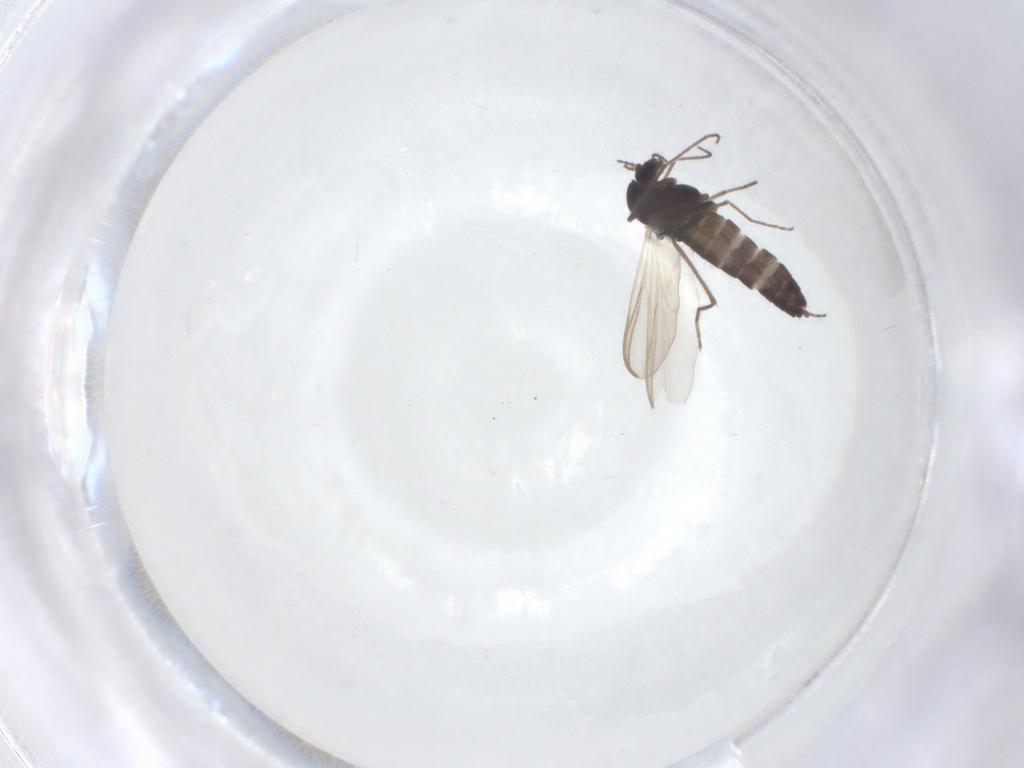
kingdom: Animalia
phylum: Arthropoda
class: Insecta
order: Diptera
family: Chironomidae
